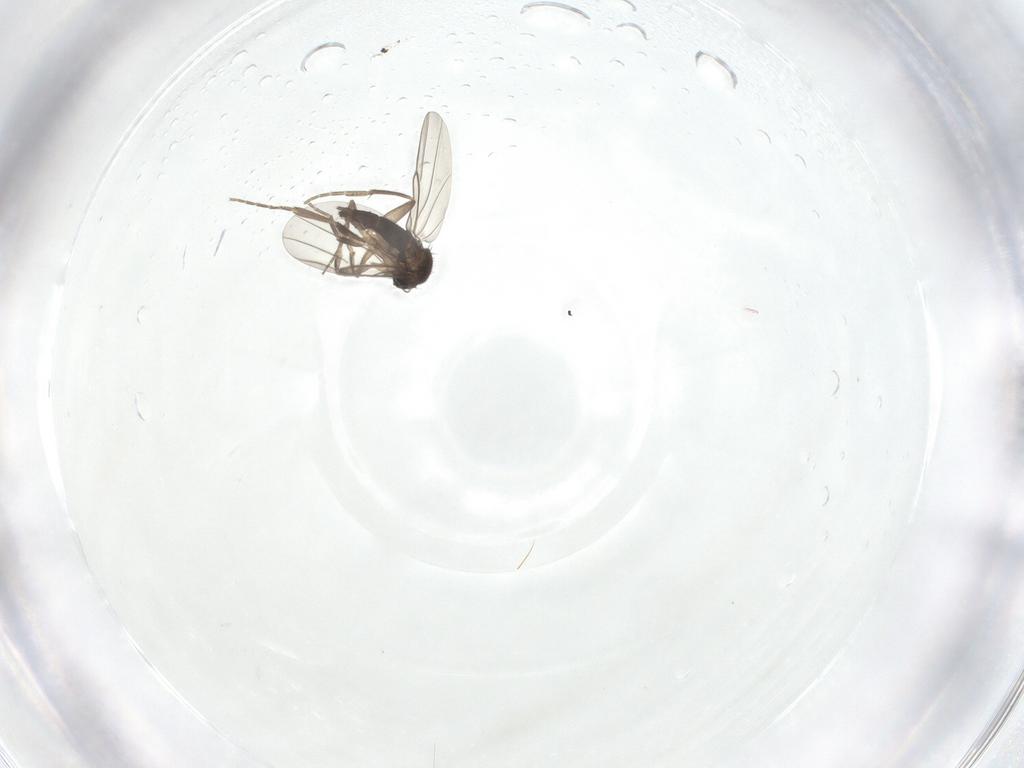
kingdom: Animalia
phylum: Arthropoda
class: Insecta
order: Diptera
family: Phoridae
